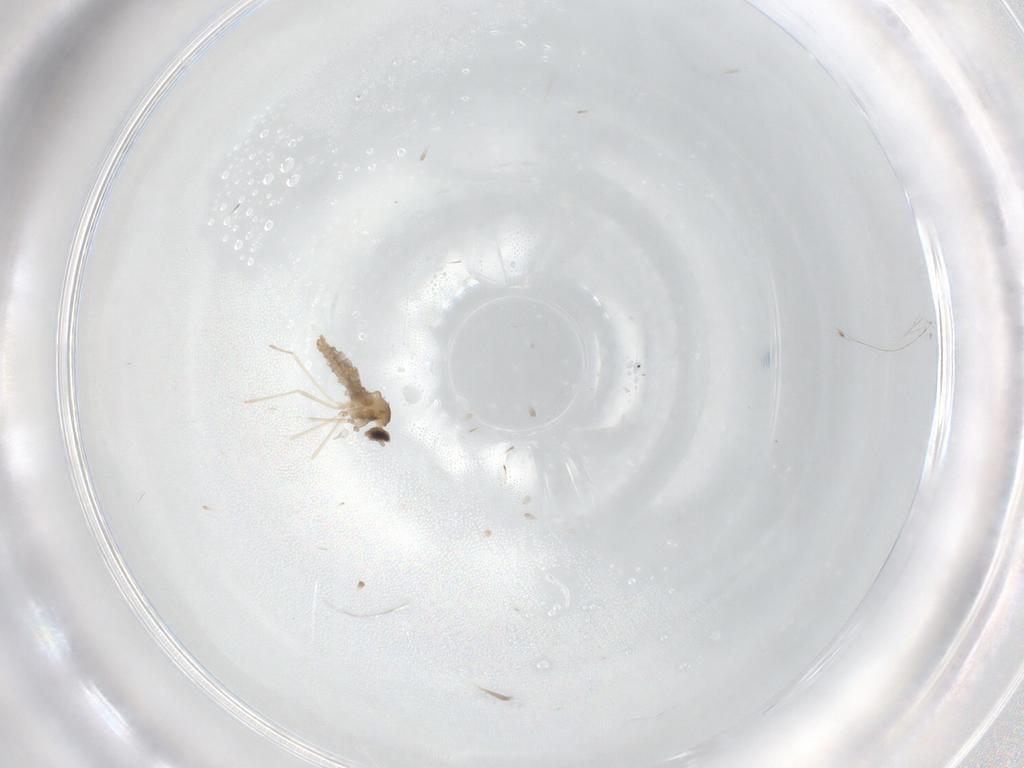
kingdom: Animalia
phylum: Arthropoda
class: Insecta
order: Diptera
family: Cecidomyiidae
